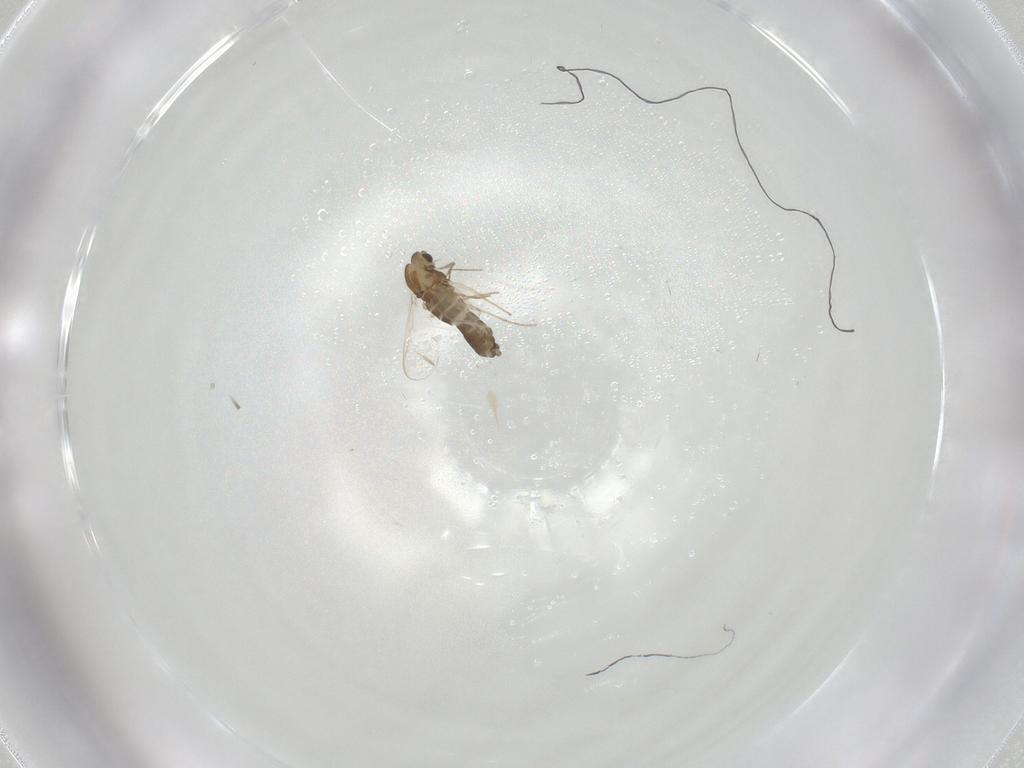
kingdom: Animalia
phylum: Arthropoda
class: Insecta
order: Diptera
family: Chironomidae
